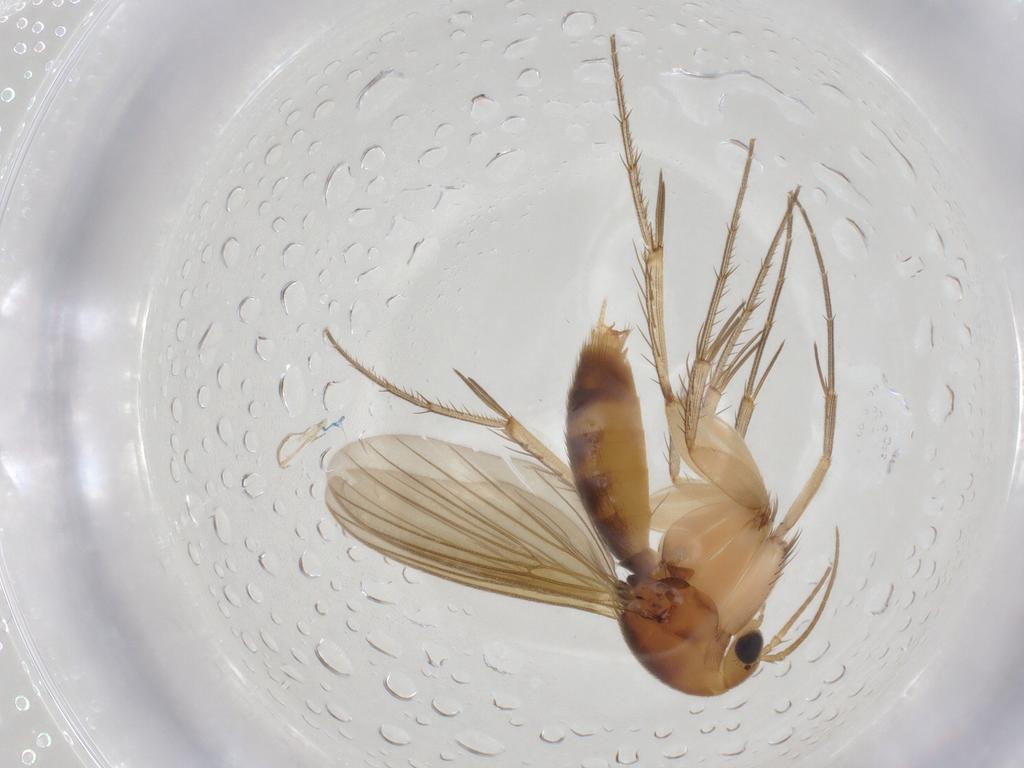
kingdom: Animalia
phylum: Arthropoda
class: Insecta
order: Diptera
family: Mycetophilidae
